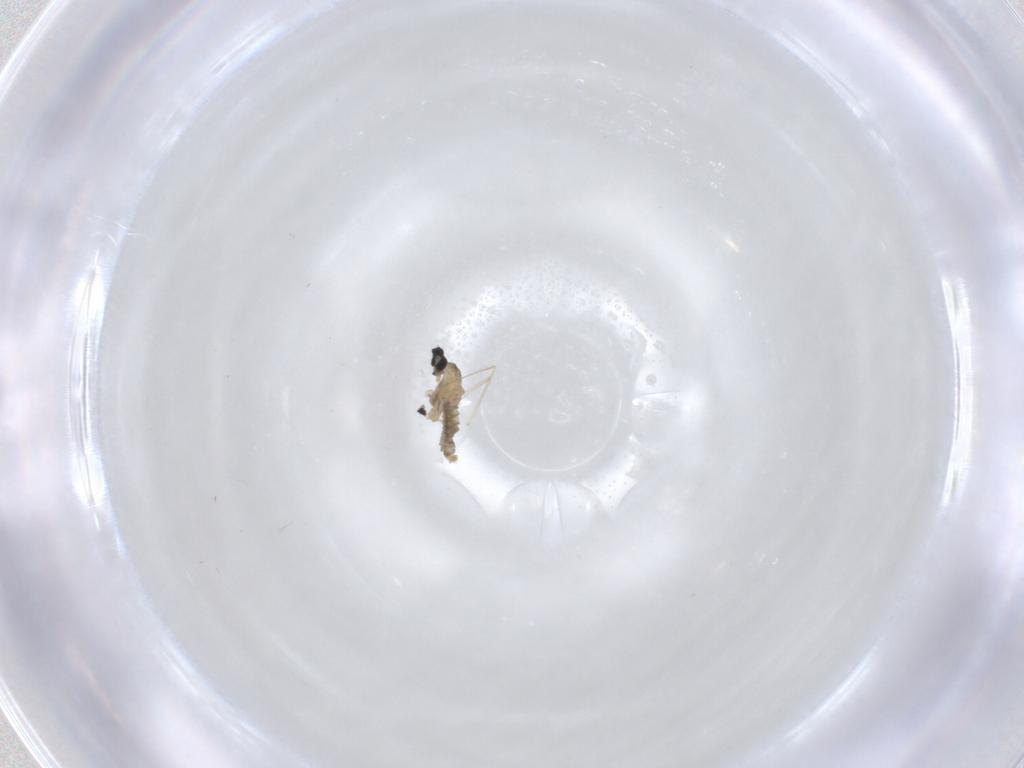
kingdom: Animalia
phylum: Arthropoda
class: Insecta
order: Diptera
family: Cecidomyiidae
